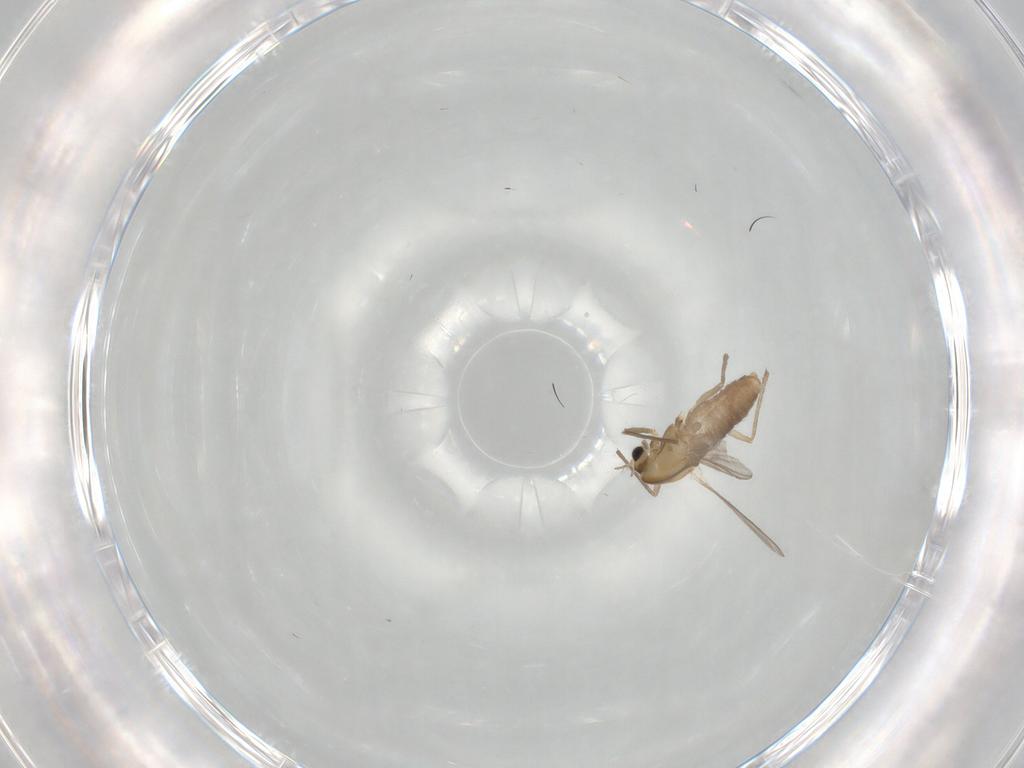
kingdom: Animalia
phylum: Arthropoda
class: Insecta
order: Diptera
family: Chironomidae
